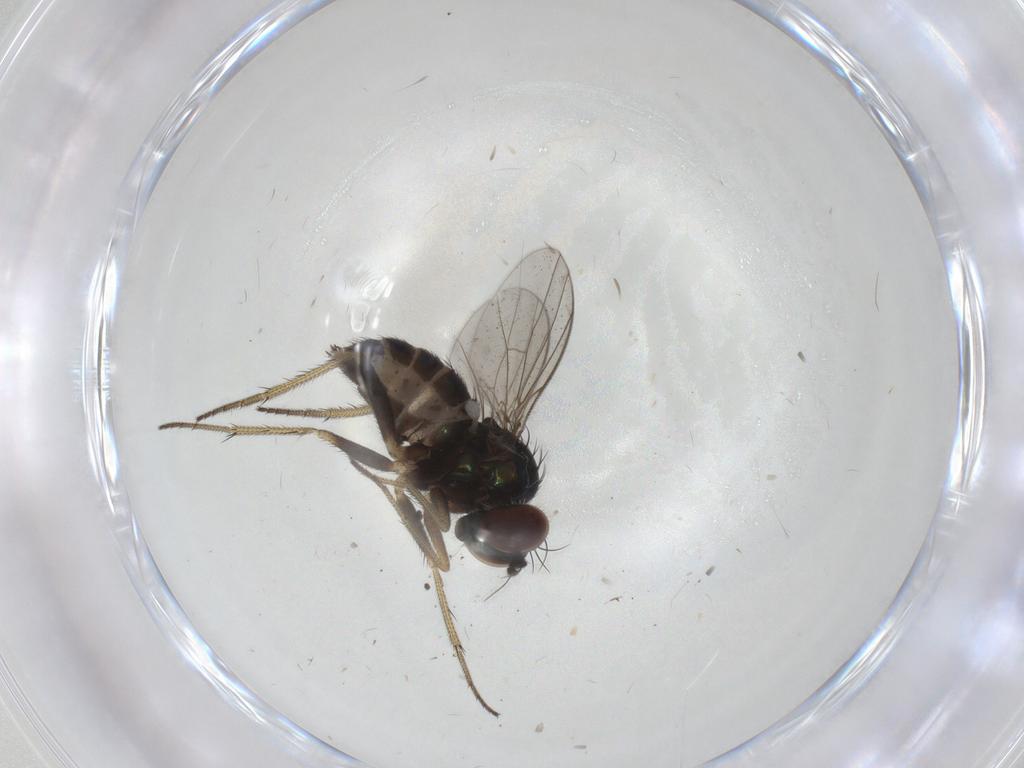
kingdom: Animalia
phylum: Arthropoda
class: Insecta
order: Diptera
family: Dolichopodidae
